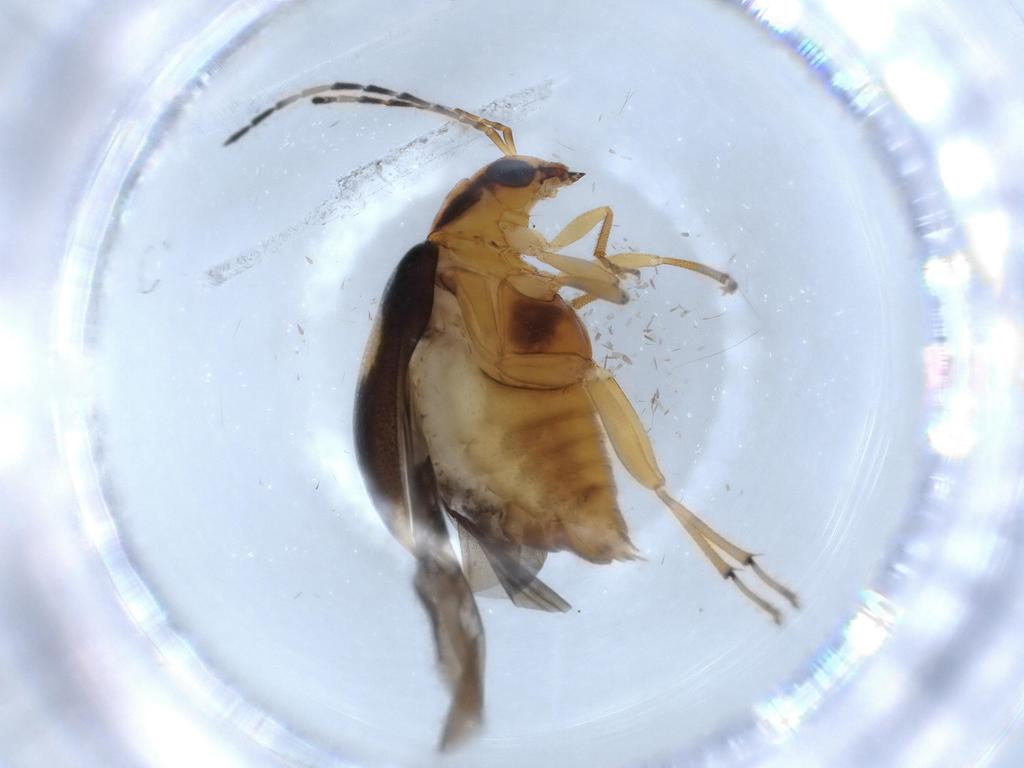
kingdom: Animalia
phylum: Arthropoda
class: Insecta
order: Coleoptera
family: Chrysomelidae
